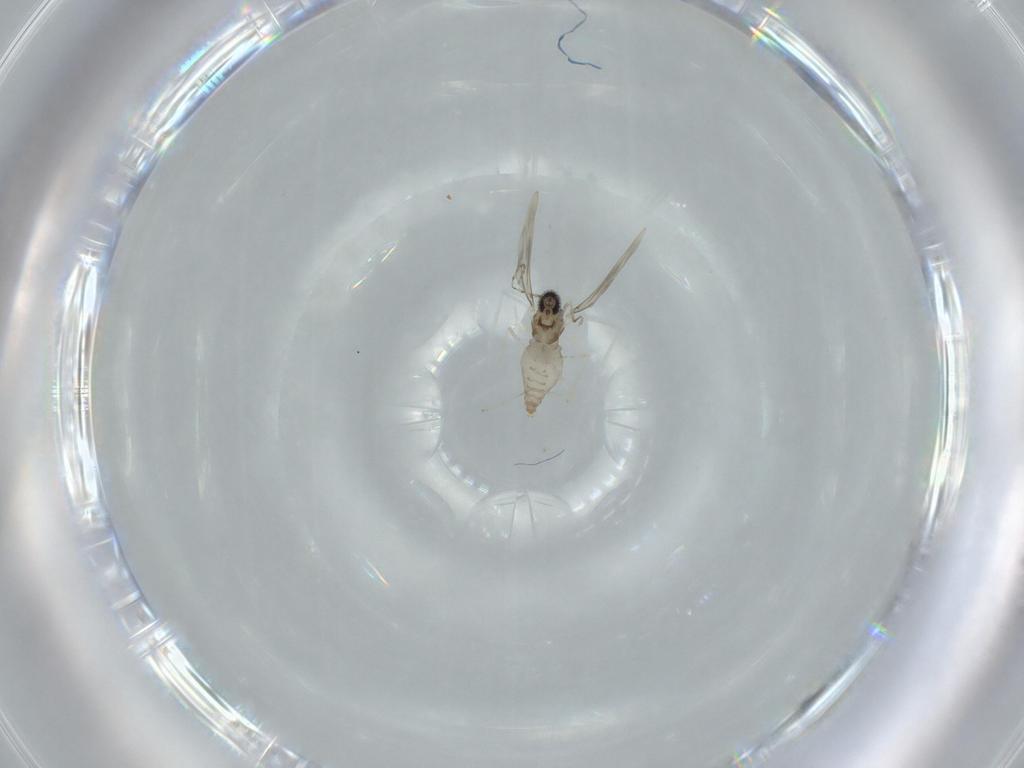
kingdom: Animalia
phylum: Arthropoda
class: Insecta
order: Diptera
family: Cecidomyiidae
